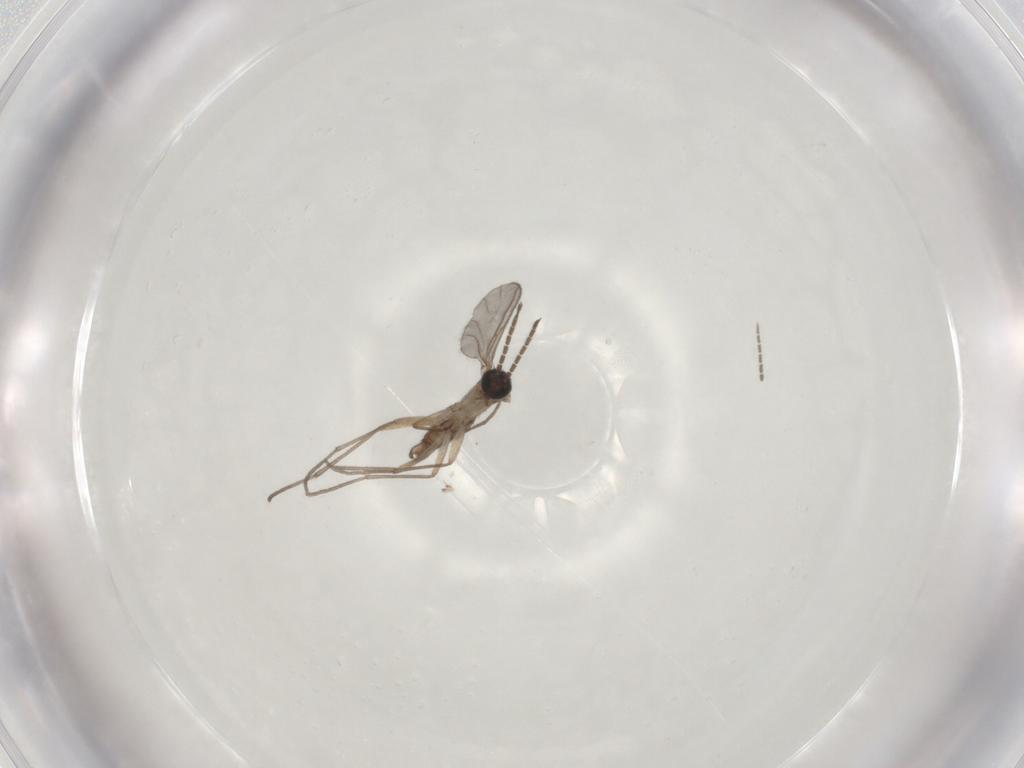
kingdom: Animalia
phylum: Arthropoda
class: Insecta
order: Diptera
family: Sciaridae
